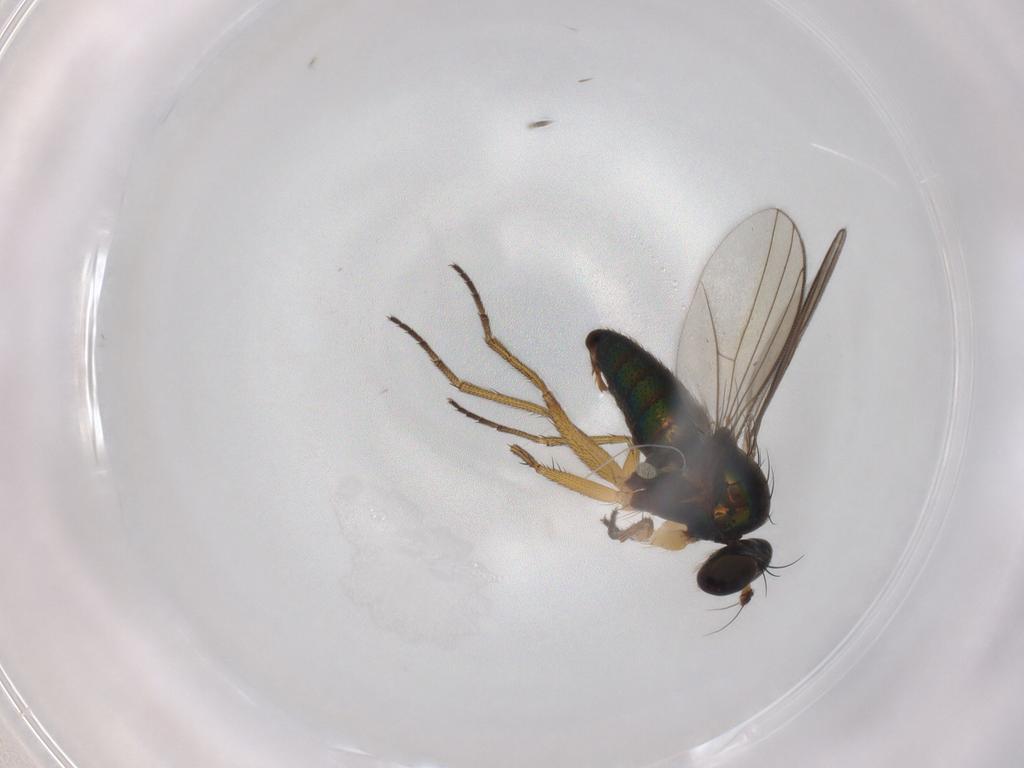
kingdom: Animalia
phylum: Arthropoda
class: Insecta
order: Diptera
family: Dolichopodidae
